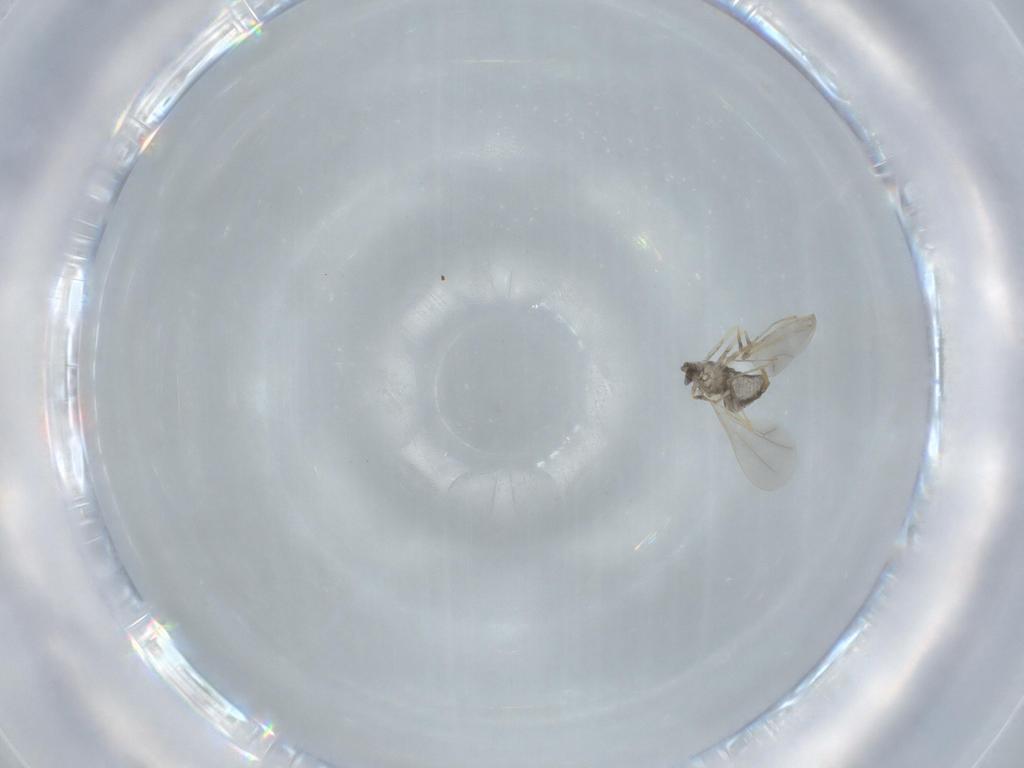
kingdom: Animalia
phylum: Arthropoda
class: Insecta
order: Diptera
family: Cecidomyiidae
